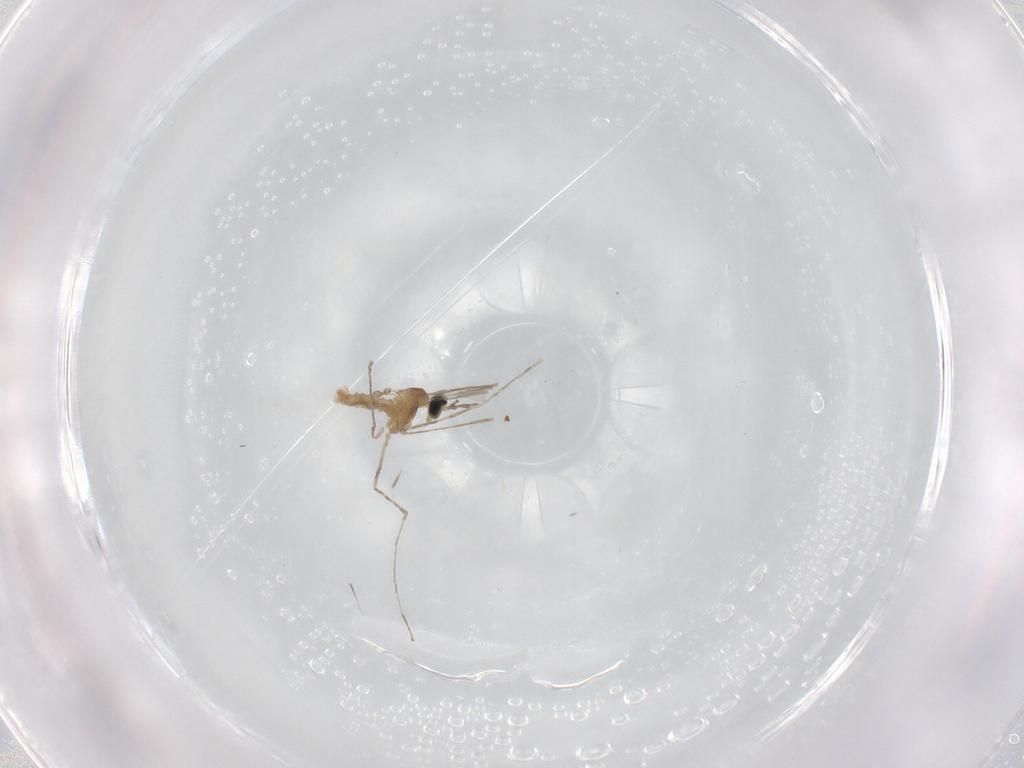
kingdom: Animalia
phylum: Arthropoda
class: Insecta
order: Diptera
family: Cecidomyiidae
